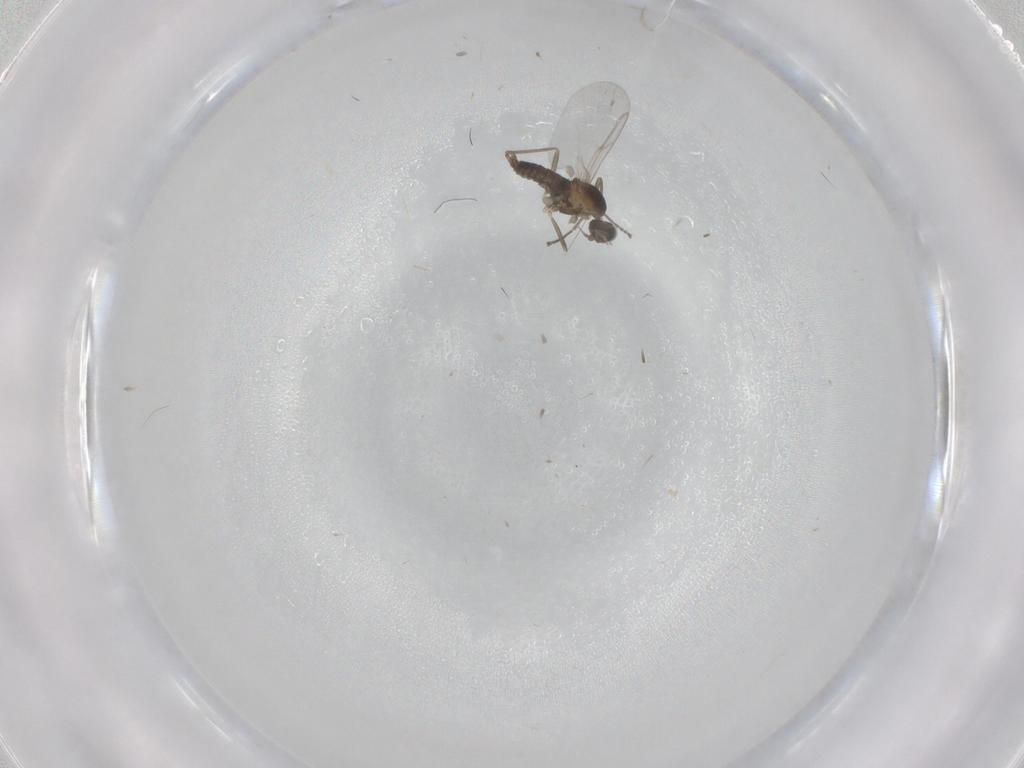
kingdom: Animalia
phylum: Arthropoda
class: Insecta
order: Diptera
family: Cecidomyiidae
